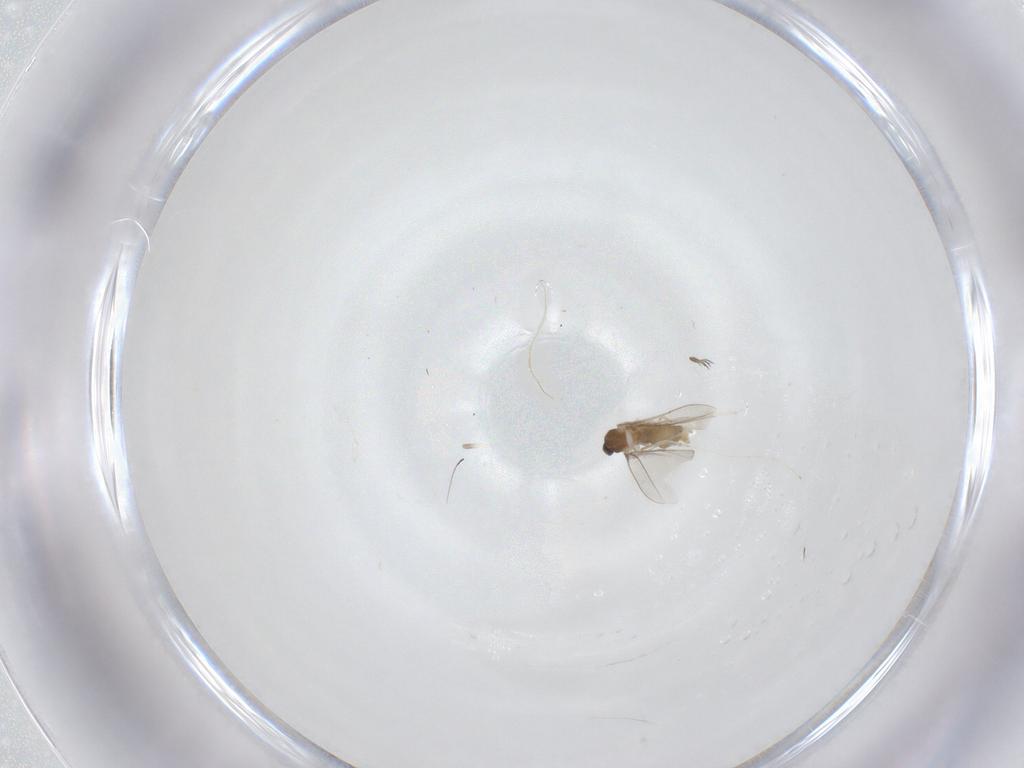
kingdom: Animalia
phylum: Arthropoda
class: Insecta
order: Diptera
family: Cecidomyiidae
